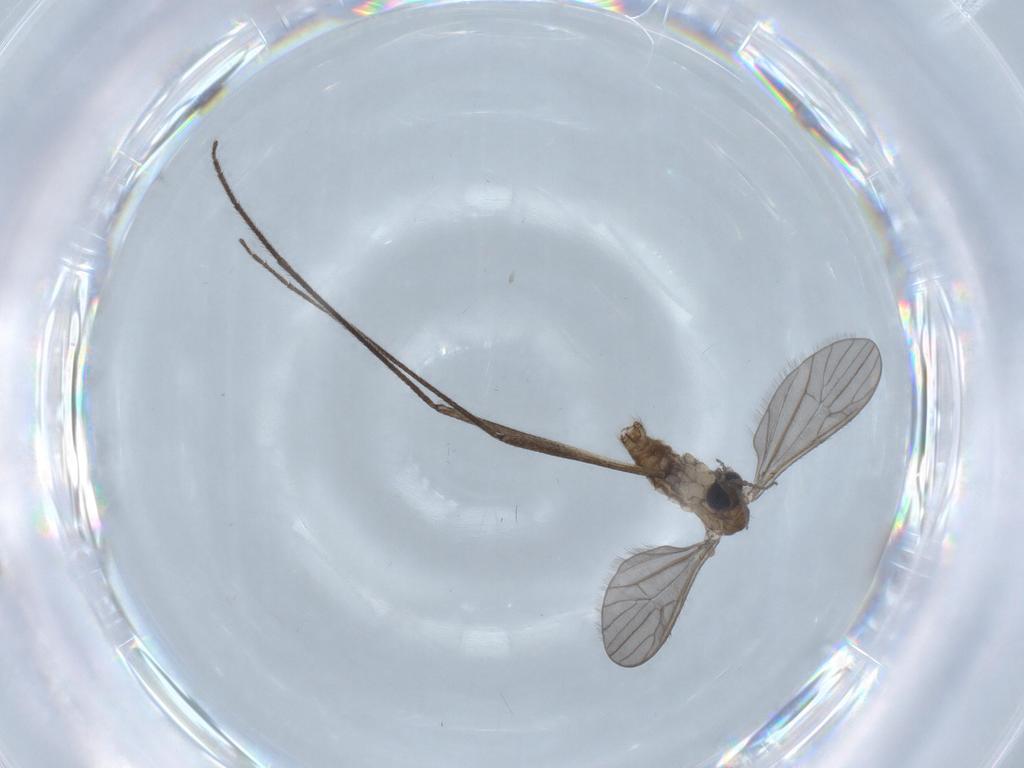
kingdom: Animalia
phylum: Arthropoda
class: Insecta
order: Diptera
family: Limoniidae
